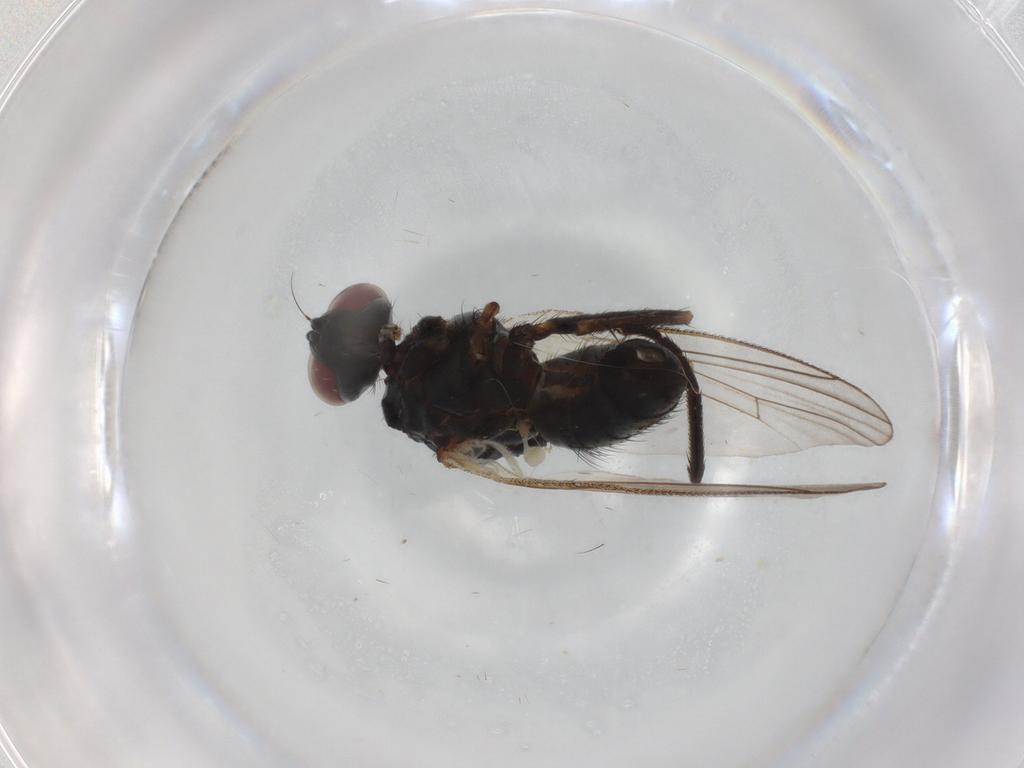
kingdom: Animalia
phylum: Arthropoda
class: Insecta
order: Diptera
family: Muscidae
